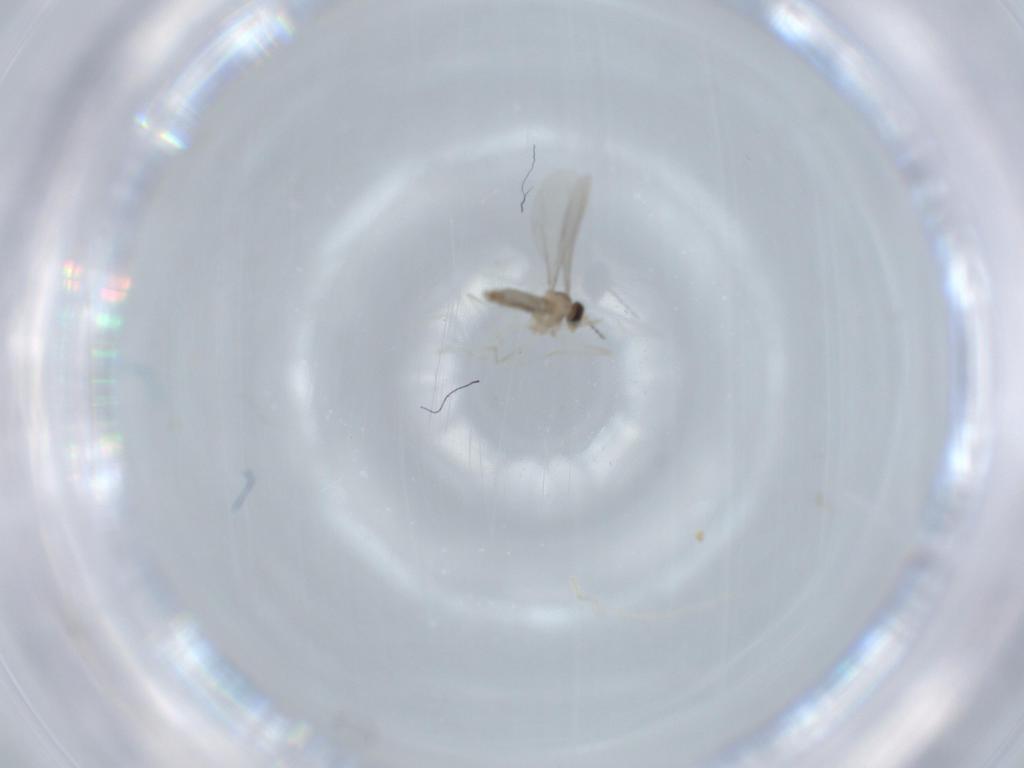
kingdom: Animalia
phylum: Arthropoda
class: Insecta
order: Diptera
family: Cecidomyiidae
